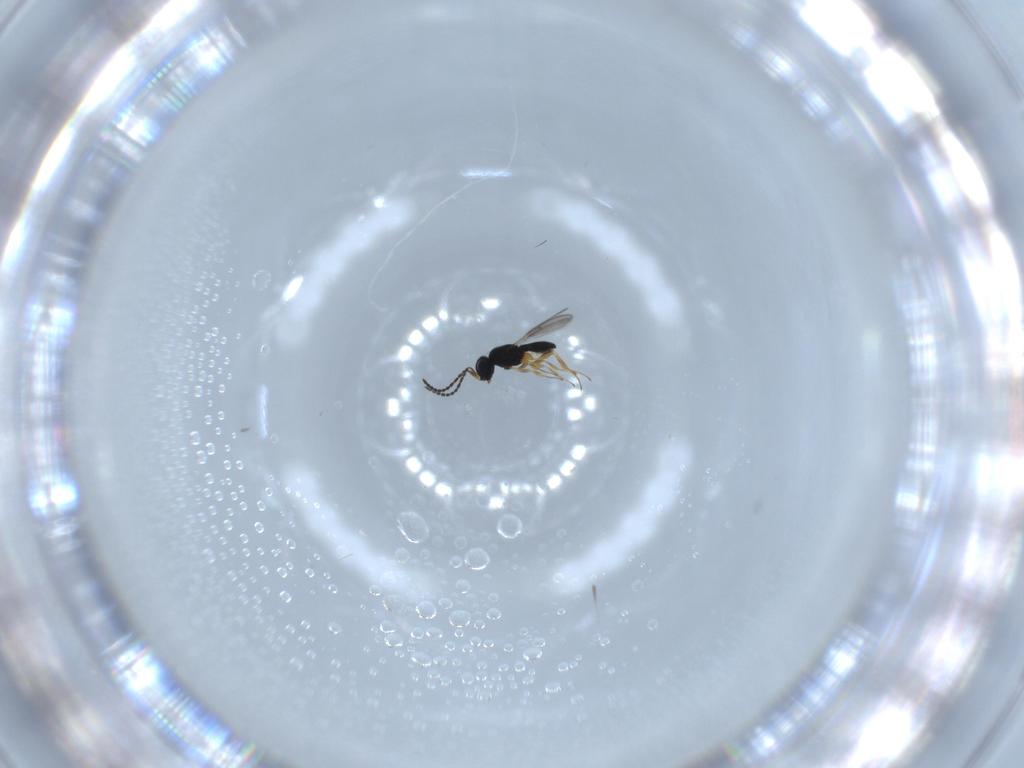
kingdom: Animalia
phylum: Arthropoda
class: Insecta
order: Hymenoptera
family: Scelionidae
